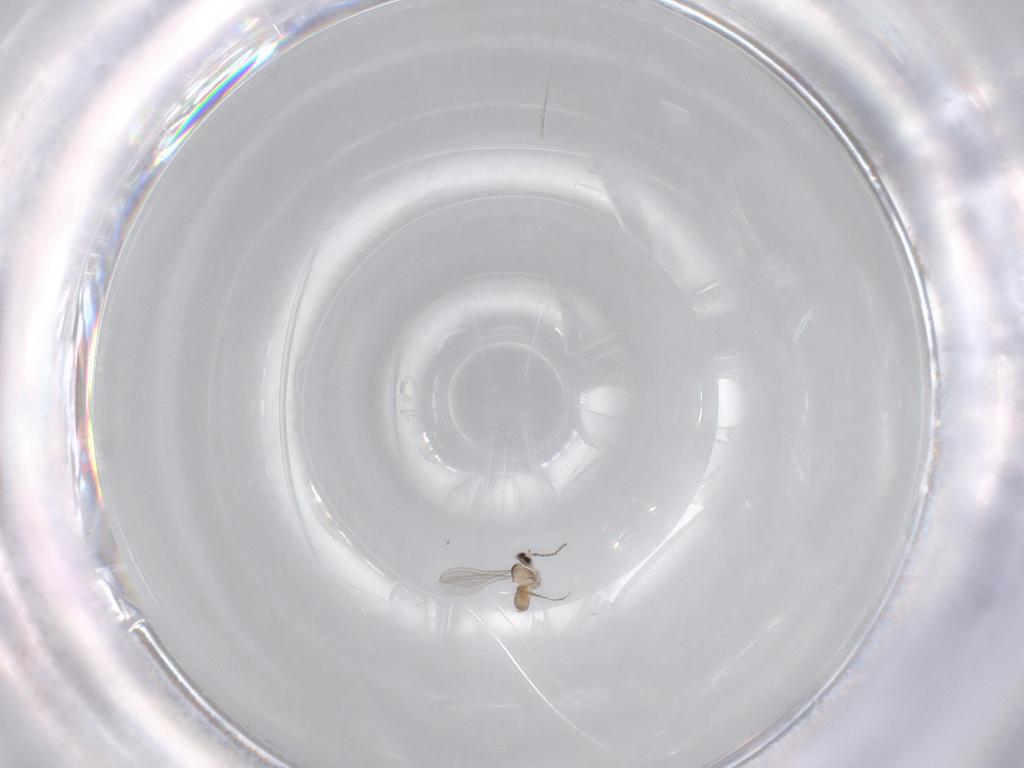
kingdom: Animalia
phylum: Arthropoda
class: Insecta
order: Diptera
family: Cecidomyiidae
